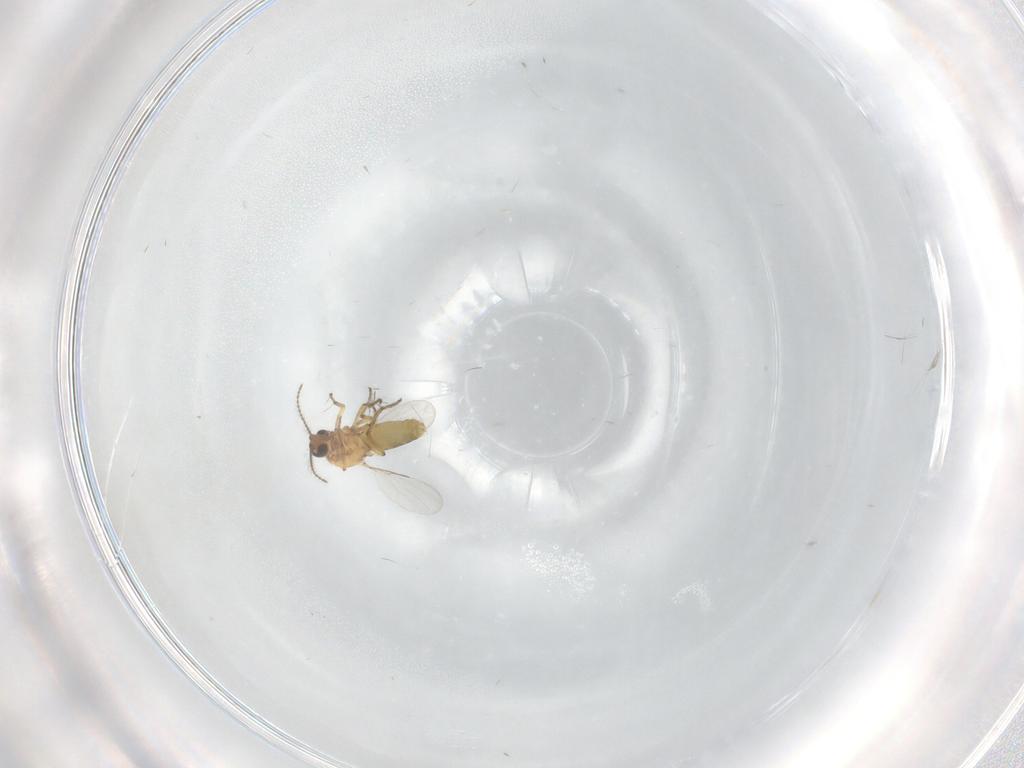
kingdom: Animalia
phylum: Arthropoda
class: Insecta
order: Diptera
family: Ceratopogonidae
